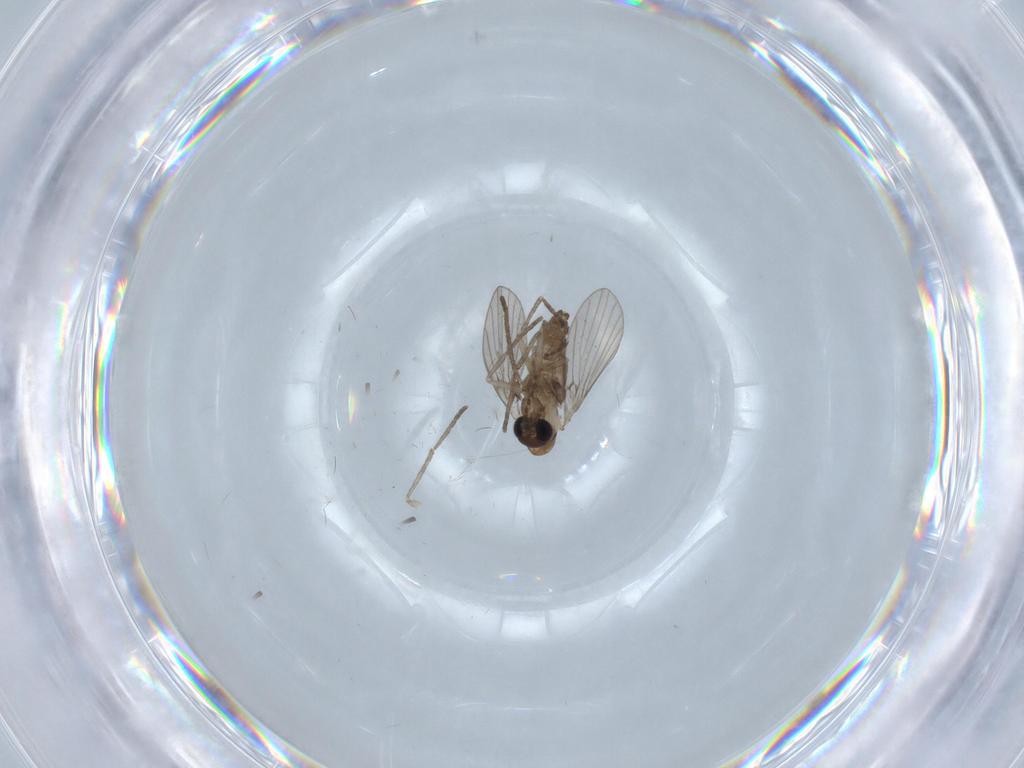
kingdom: Animalia
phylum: Arthropoda
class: Insecta
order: Diptera
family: Psychodidae
